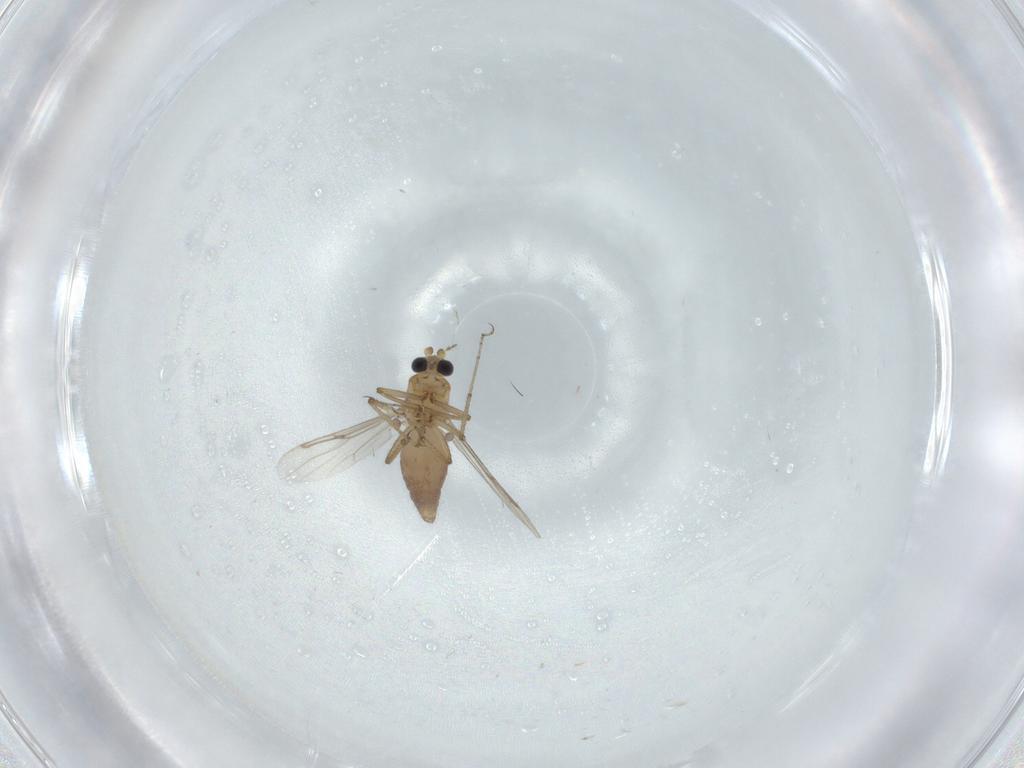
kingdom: Animalia
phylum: Arthropoda
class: Insecta
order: Diptera
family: Ceratopogonidae
